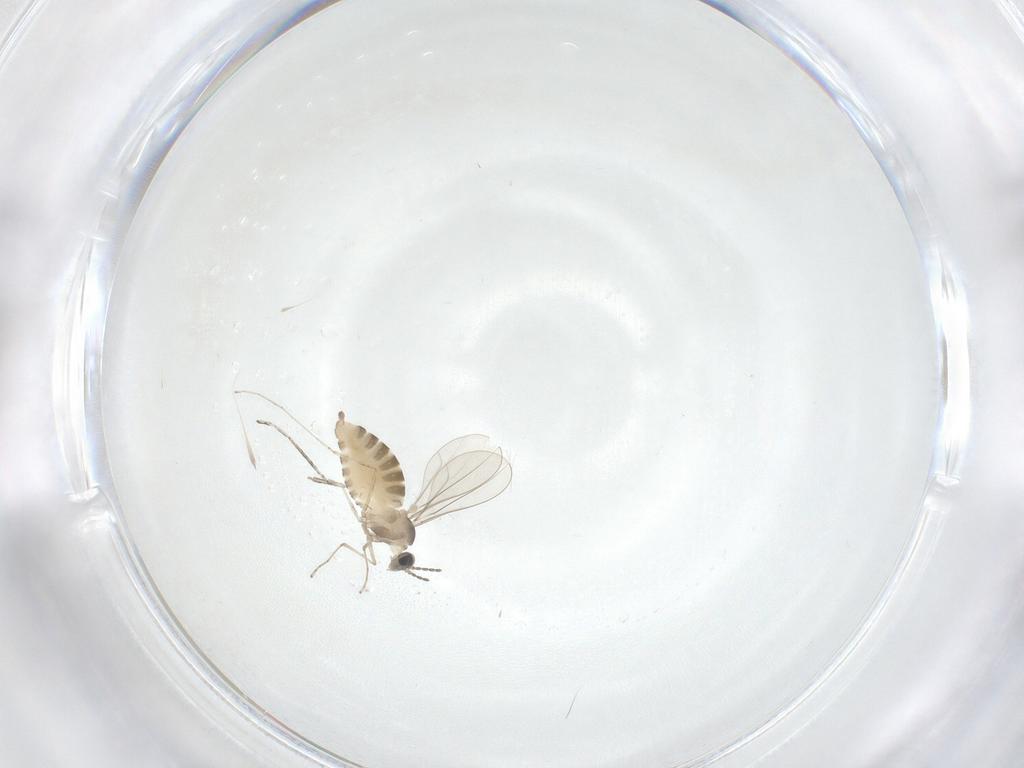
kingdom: Animalia
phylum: Arthropoda
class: Insecta
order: Diptera
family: Cecidomyiidae
